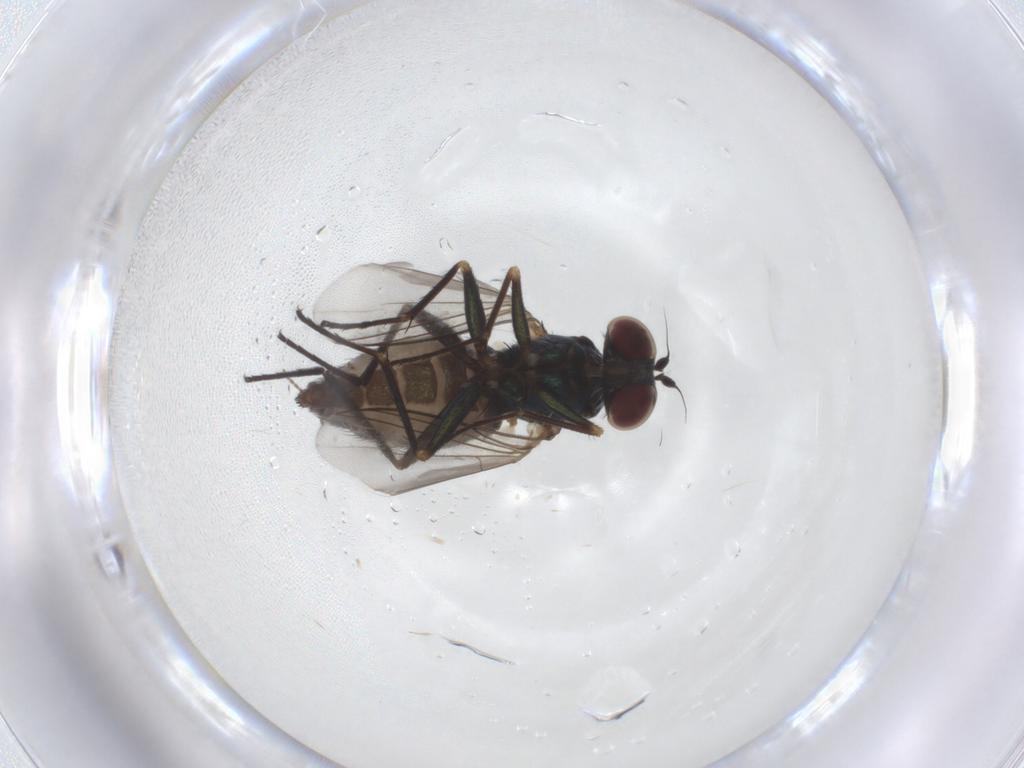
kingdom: Animalia
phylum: Arthropoda
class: Insecta
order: Diptera
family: Dolichopodidae
